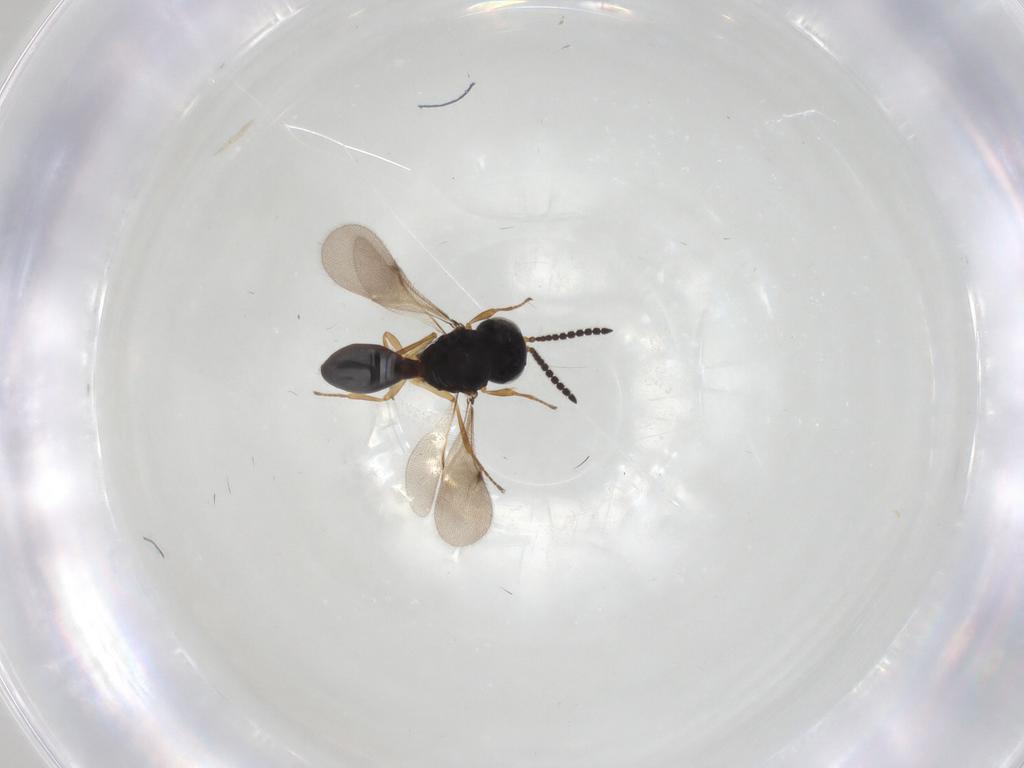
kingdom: Animalia
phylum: Arthropoda
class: Insecta
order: Hymenoptera
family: Scelionidae
